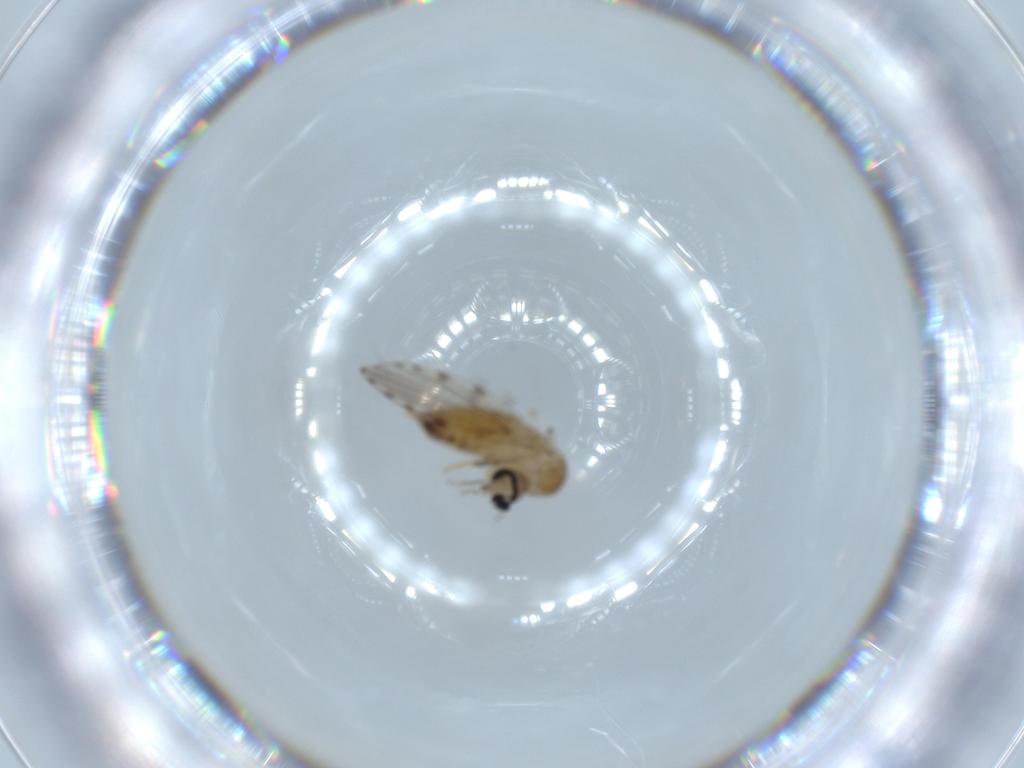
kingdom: Animalia
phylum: Arthropoda
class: Insecta
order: Diptera
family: Psychodidae
